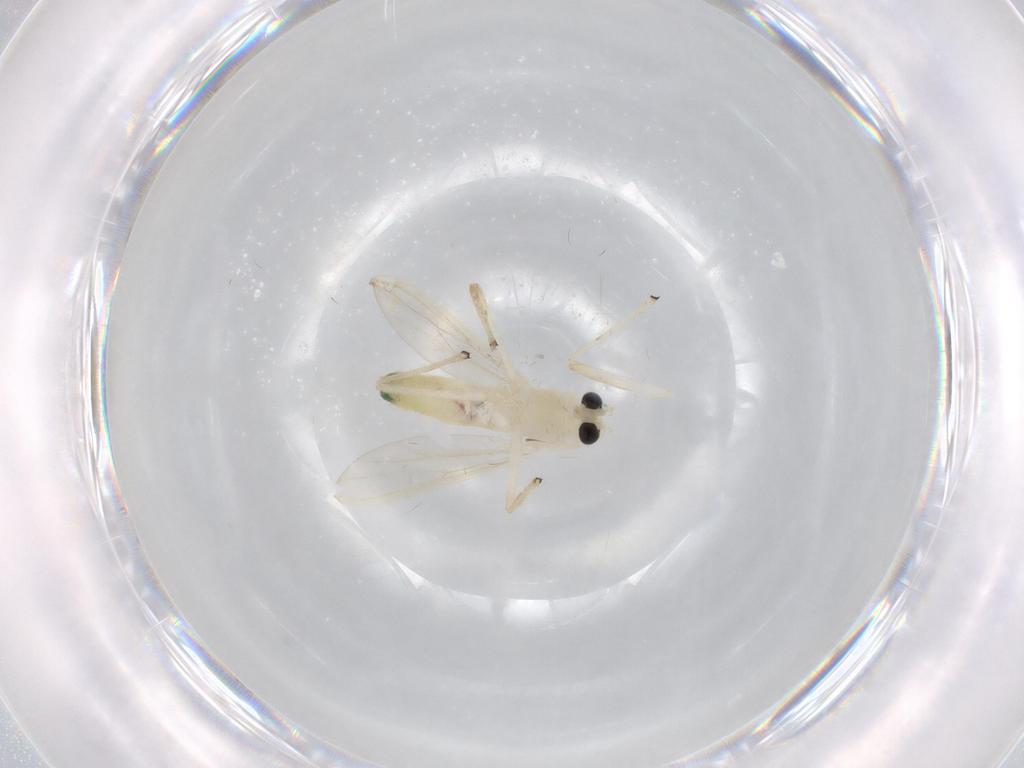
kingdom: Animalia
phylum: Arthropoda
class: Insecta
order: Diptera
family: Chironomidae
